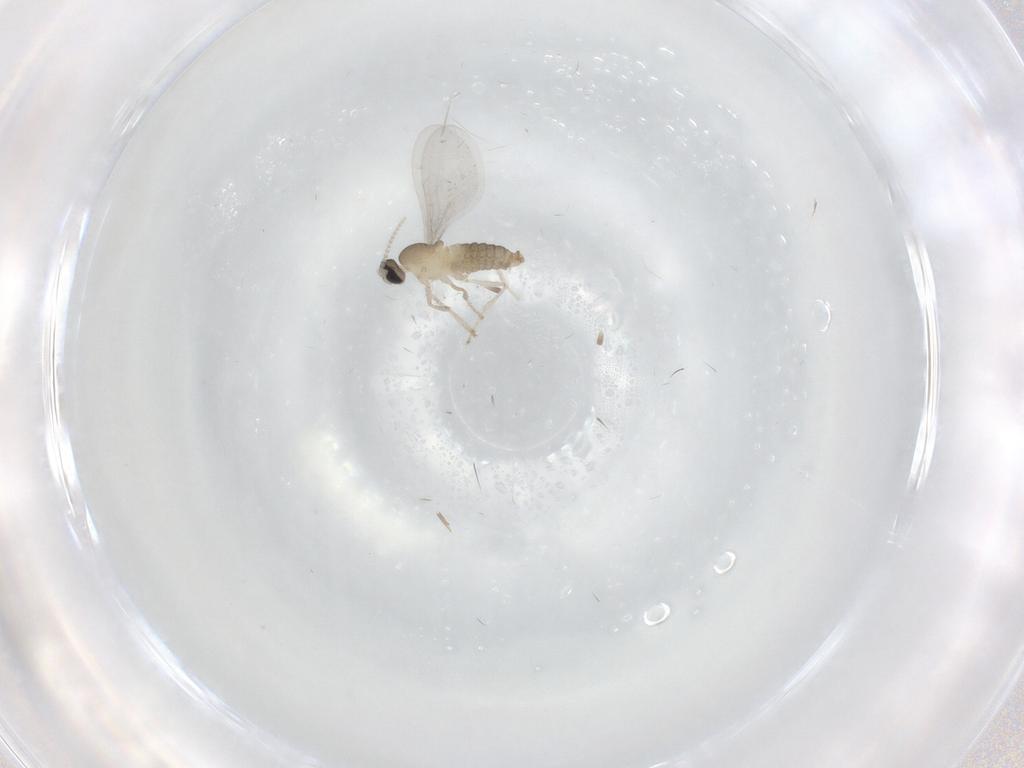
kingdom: Animalia
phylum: Arthropoda
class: Insecta
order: Diptera
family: Cecidomyiidae
